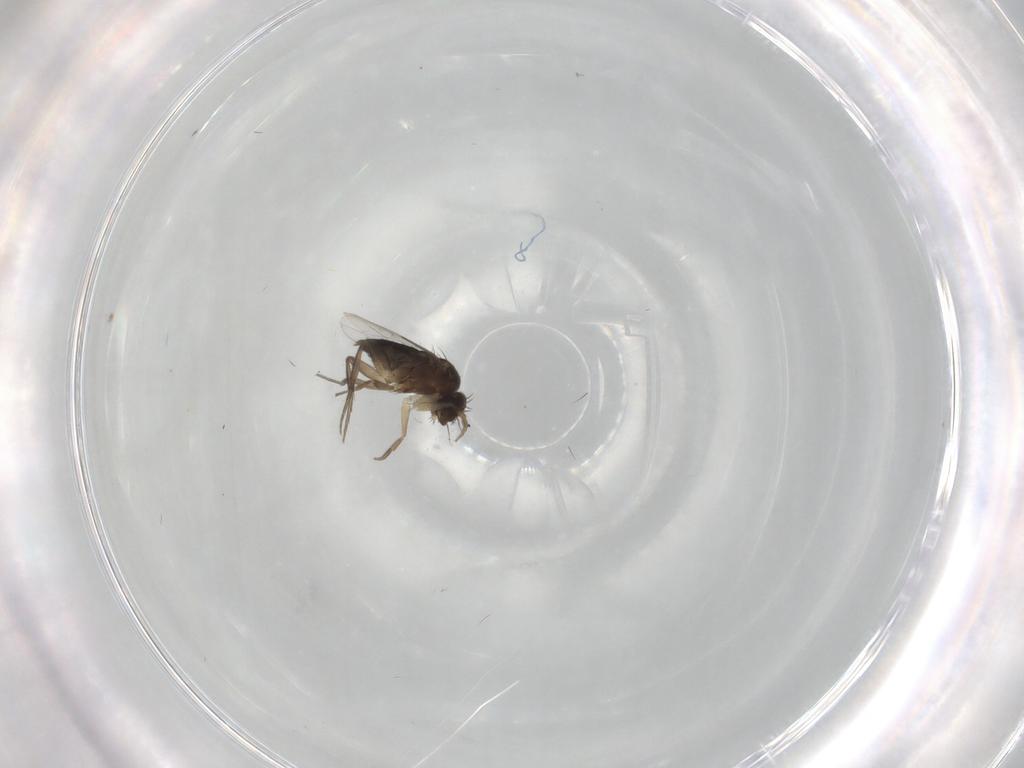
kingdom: Animalia
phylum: Arthropoda
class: Insecta
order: Diptera
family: Phoridae
